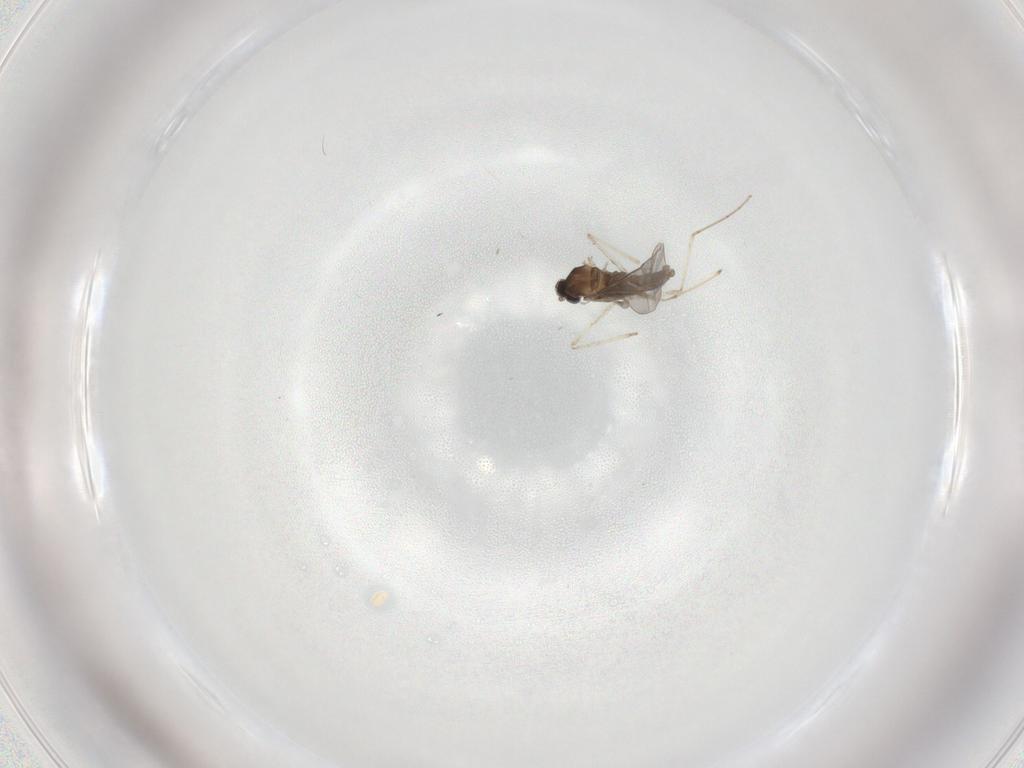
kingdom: Animalia
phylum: Arthropoda
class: Insecta
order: Diptera
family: Cecidomyiidae
